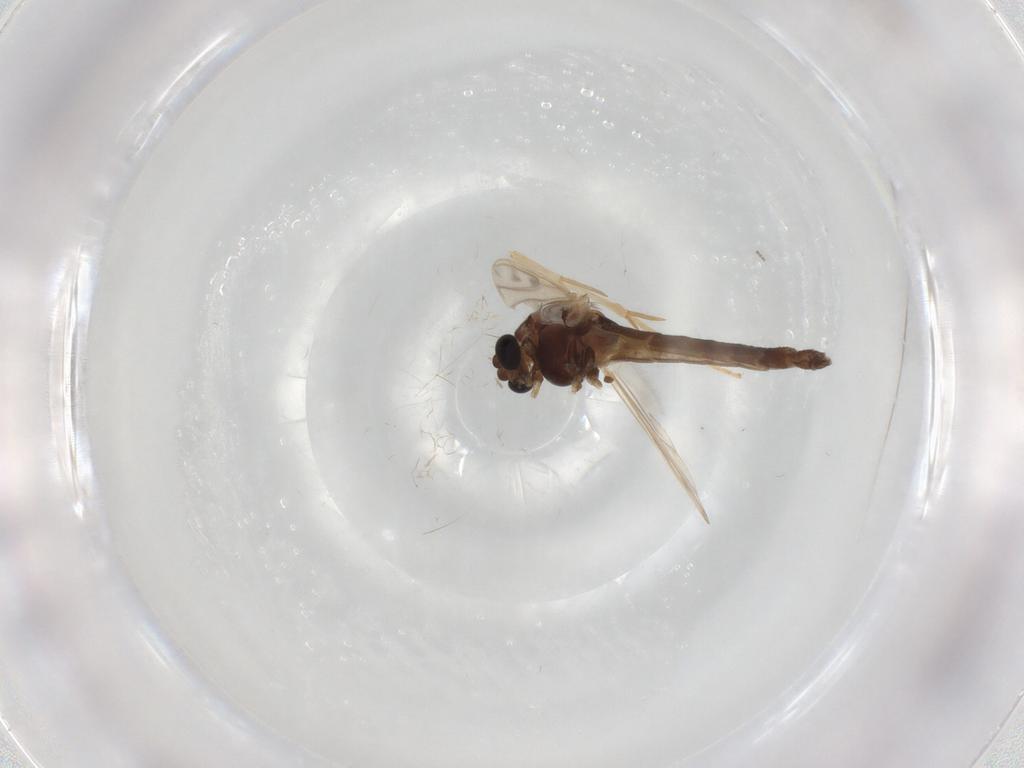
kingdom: Animalia
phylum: Arthropoda
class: Insecta
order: Diptera
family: Chironomidae
